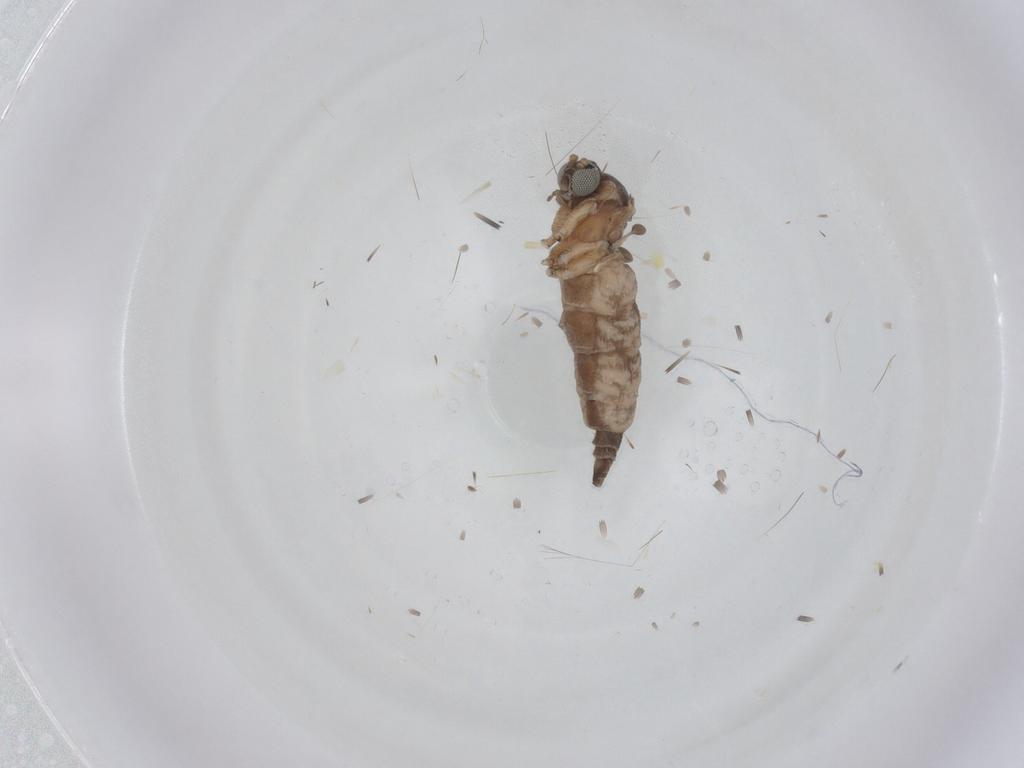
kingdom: Animalia
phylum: Arthropoda
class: Insecta
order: Diptera
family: Sciaridae
